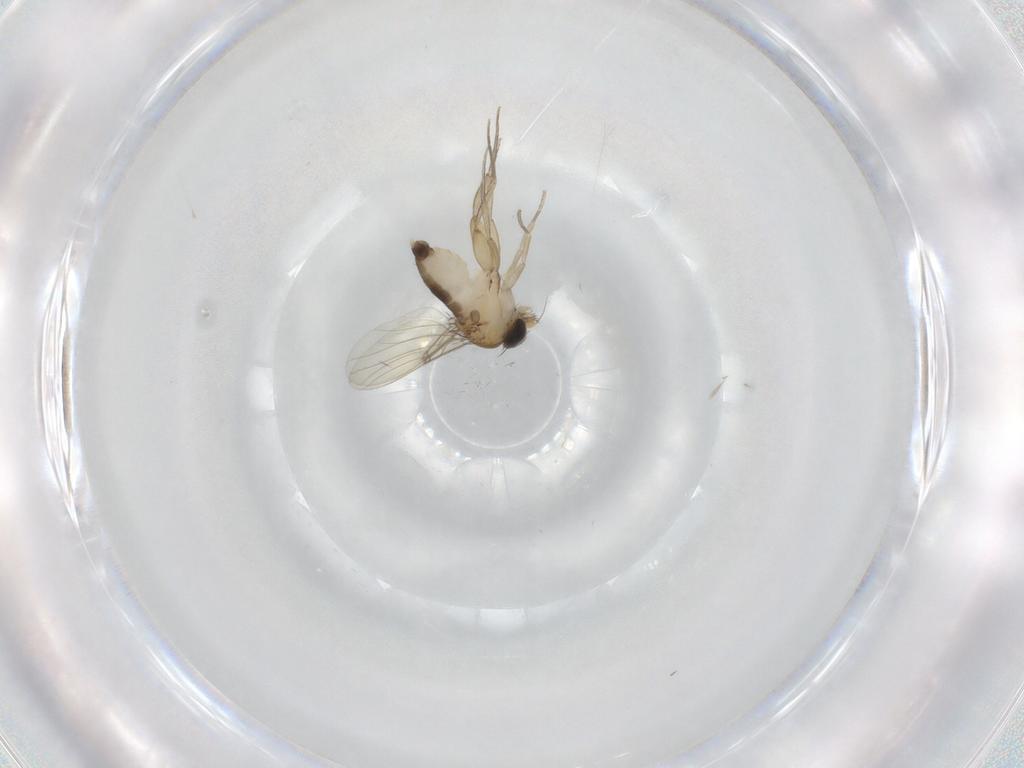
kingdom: Animalia
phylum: Arthropoda
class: Insecta
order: Diptera
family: Phoridae
